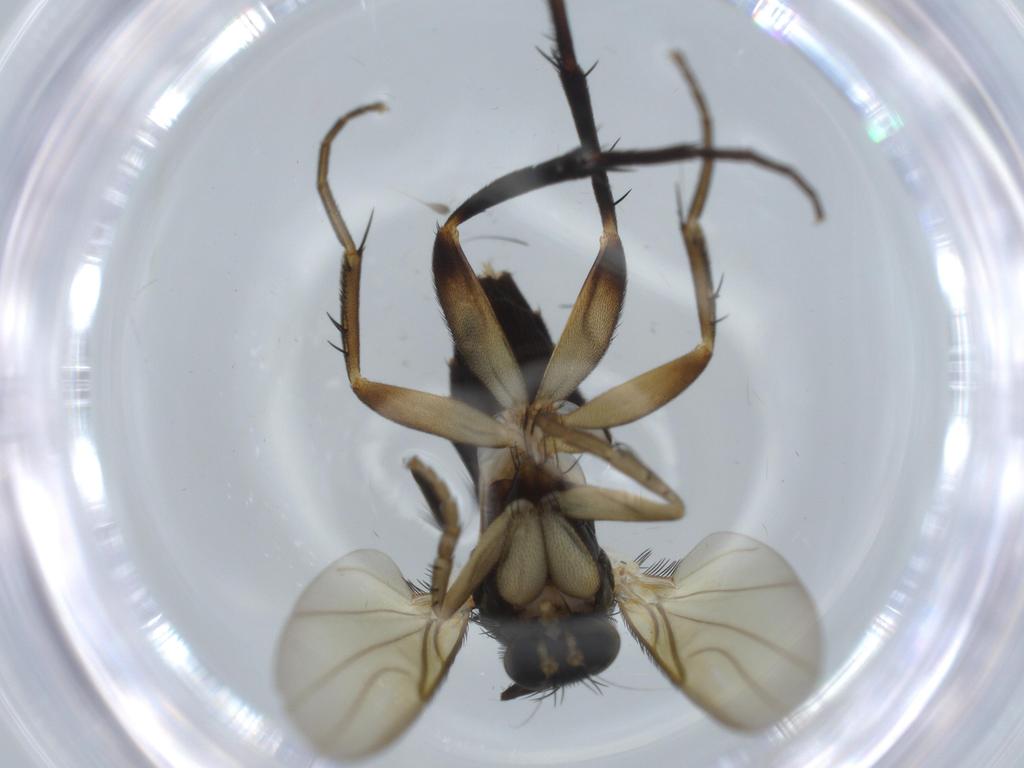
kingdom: Animalia
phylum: Arthropoda
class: Insecta
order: Diptera
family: Phoridae
